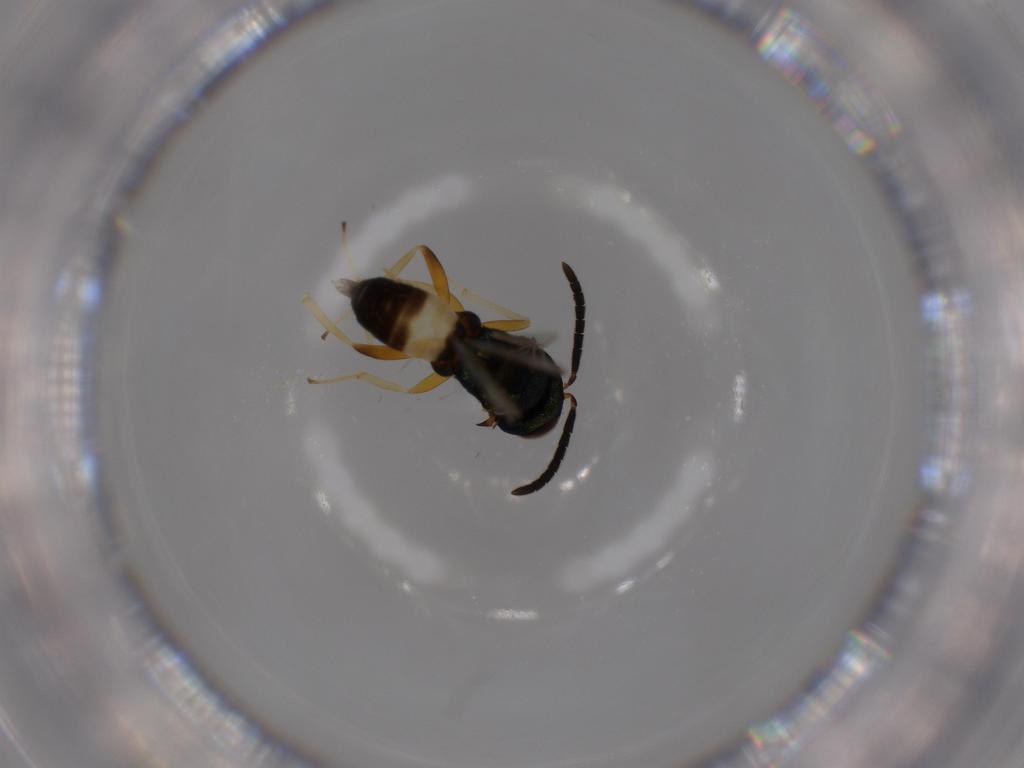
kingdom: Animalia
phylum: Arthropoda
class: Insecta
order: Hymenoptera
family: Pteromalidae
